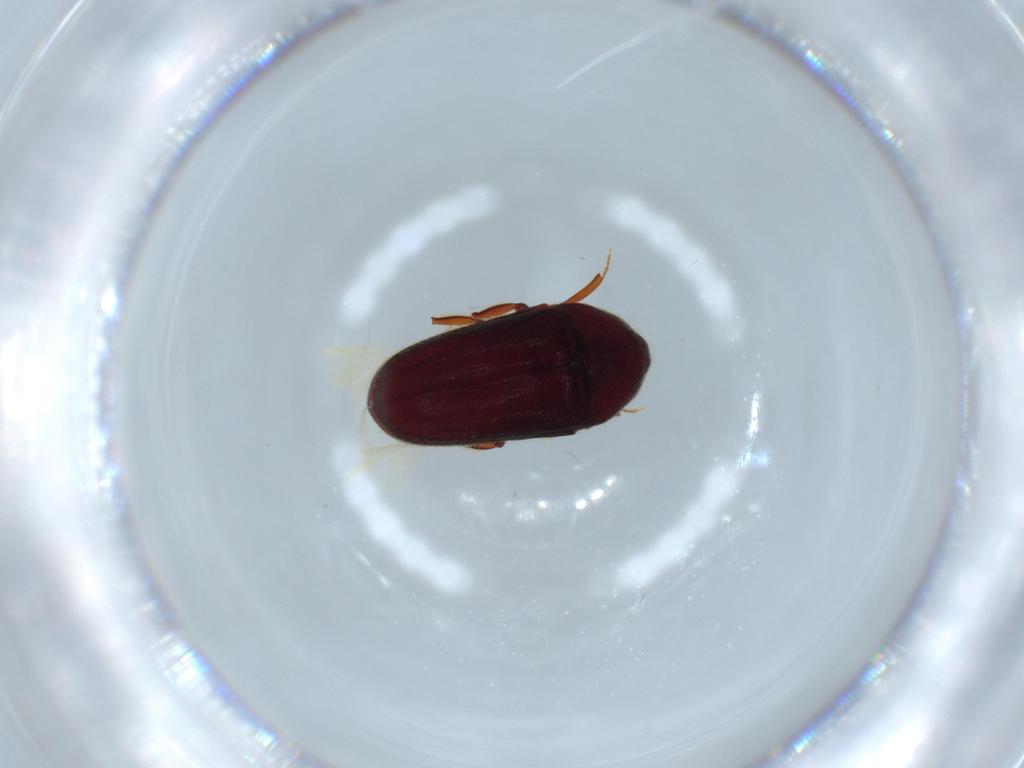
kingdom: Animalia
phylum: Arthropoda
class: Insecta
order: Coleoptera
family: Throscidae
